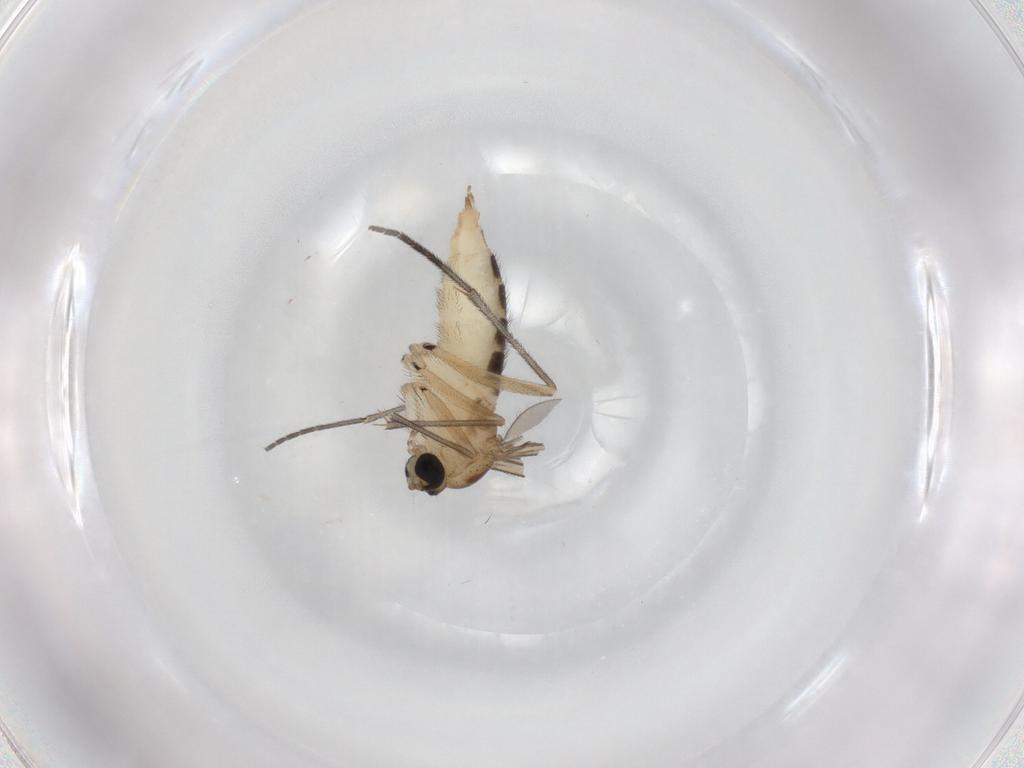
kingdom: Animalia
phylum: Arthropoda
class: Insecta
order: Diptera
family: Sciaridae
